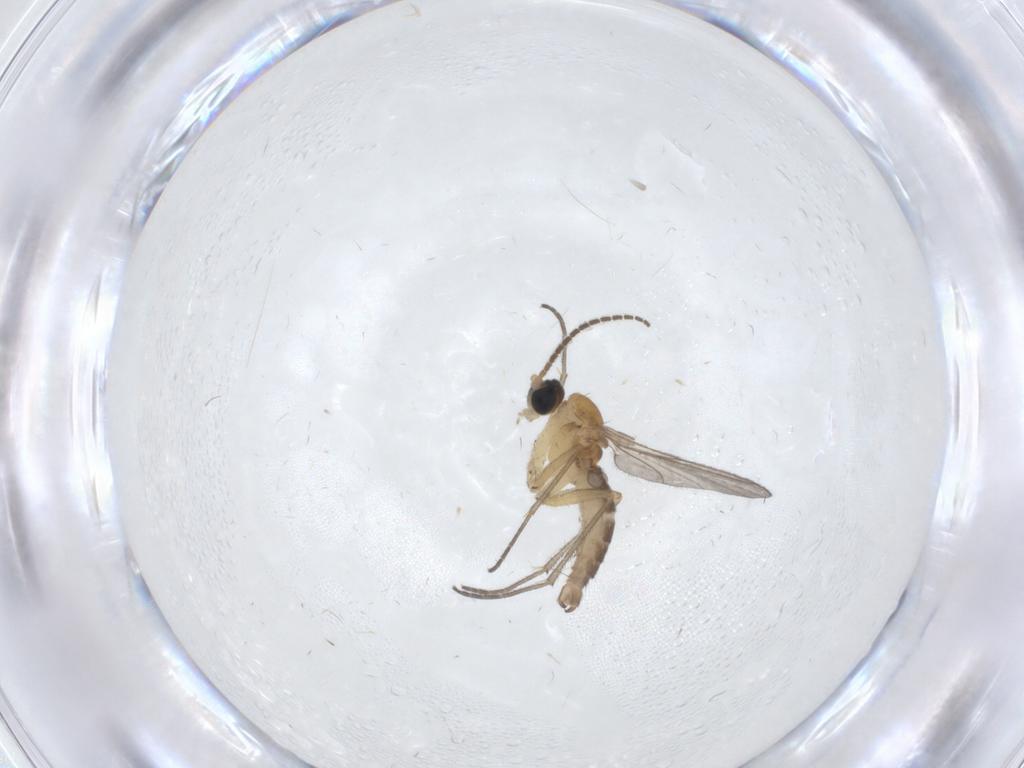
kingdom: Animalia
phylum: Arthropoda
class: Insecta
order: Diptera
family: Sciaridae
